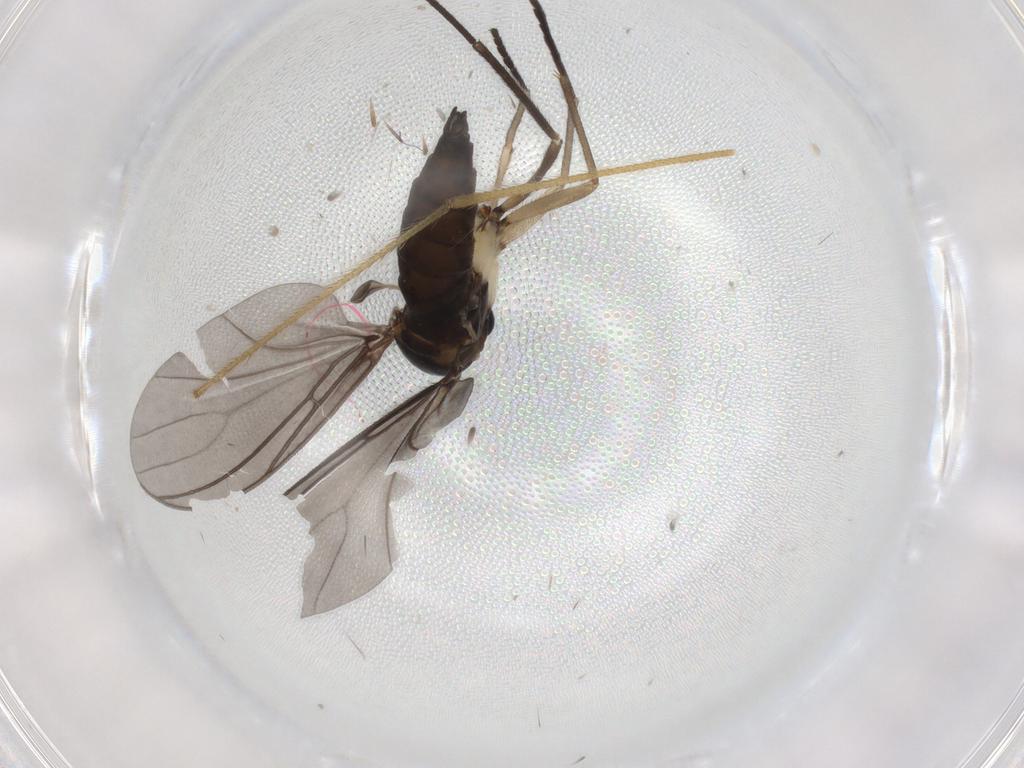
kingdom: Animalia
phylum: Arthropoda
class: Insecta
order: Diptera
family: Sciaridae
